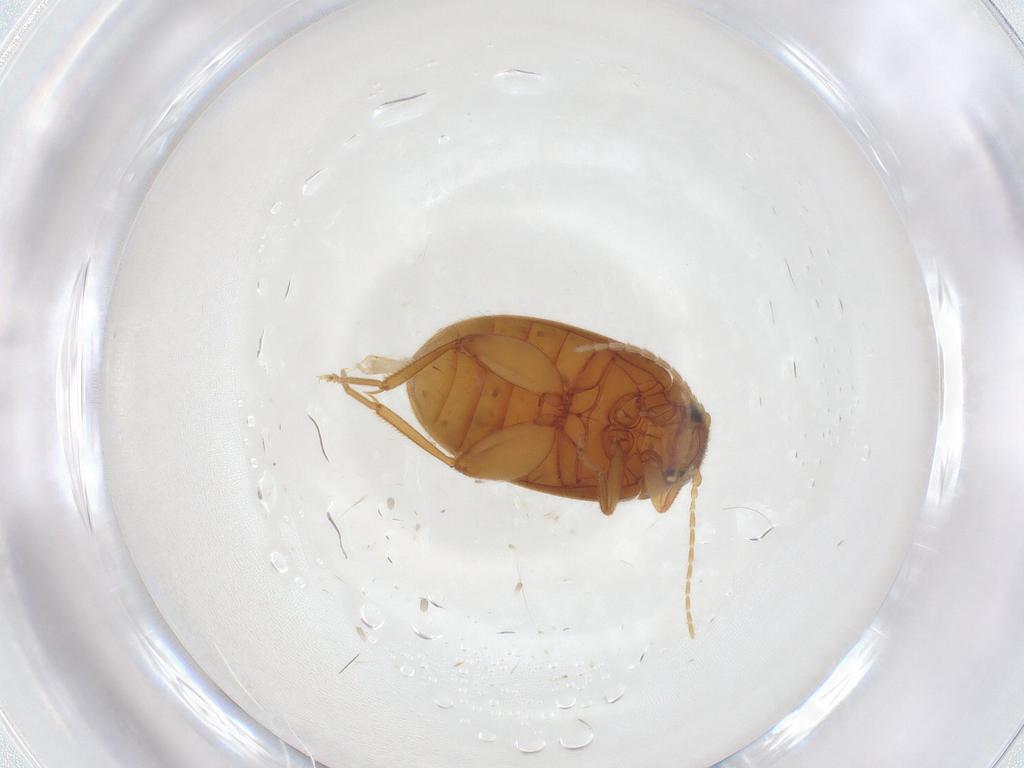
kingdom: Animalia
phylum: Arthropoda
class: Insecta
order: Coleoptera
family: Scirtidae
